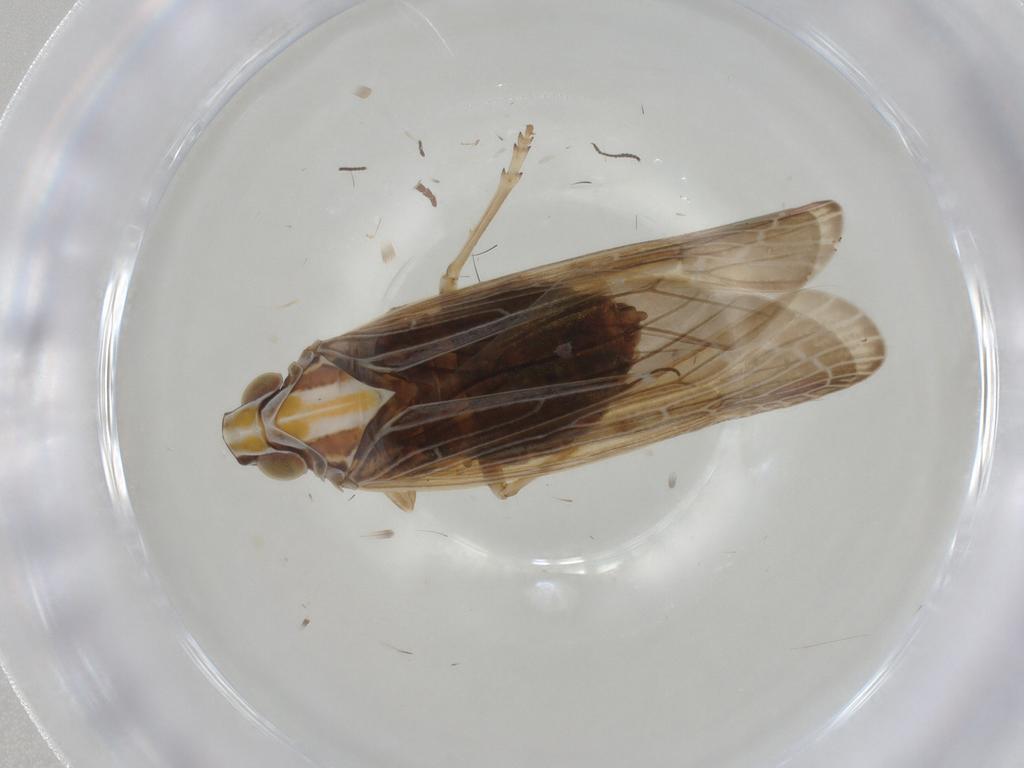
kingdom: Animalia
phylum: Arthropoda
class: Insecta
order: Hemiptera
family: Achilidae
